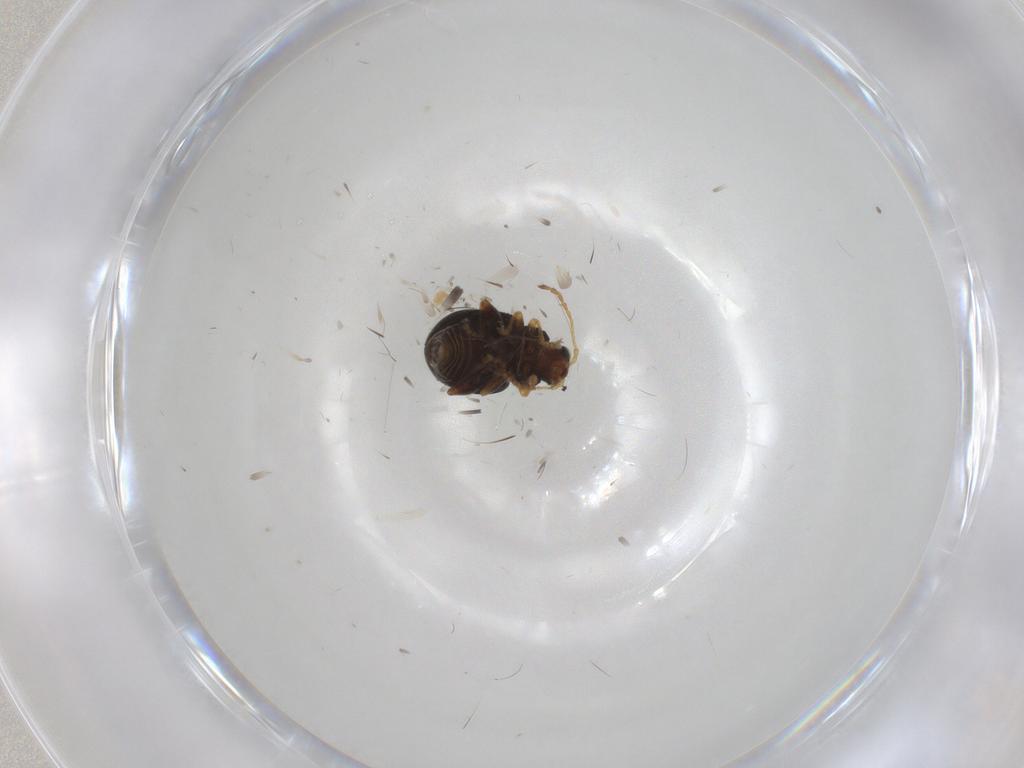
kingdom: Animalia
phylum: Arthropoda
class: Insecta
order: Coleoptera
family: Chrysomelidae
